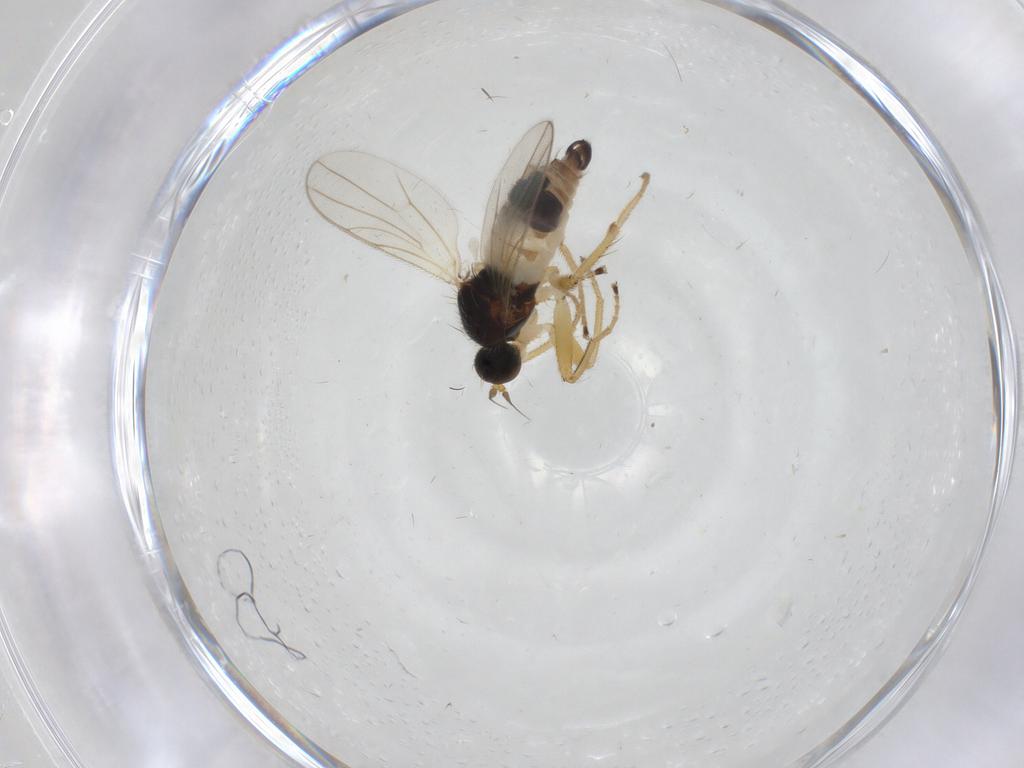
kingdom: Animalia
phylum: Arthropoda
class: Insecta
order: Diptera
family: Hybotidae
